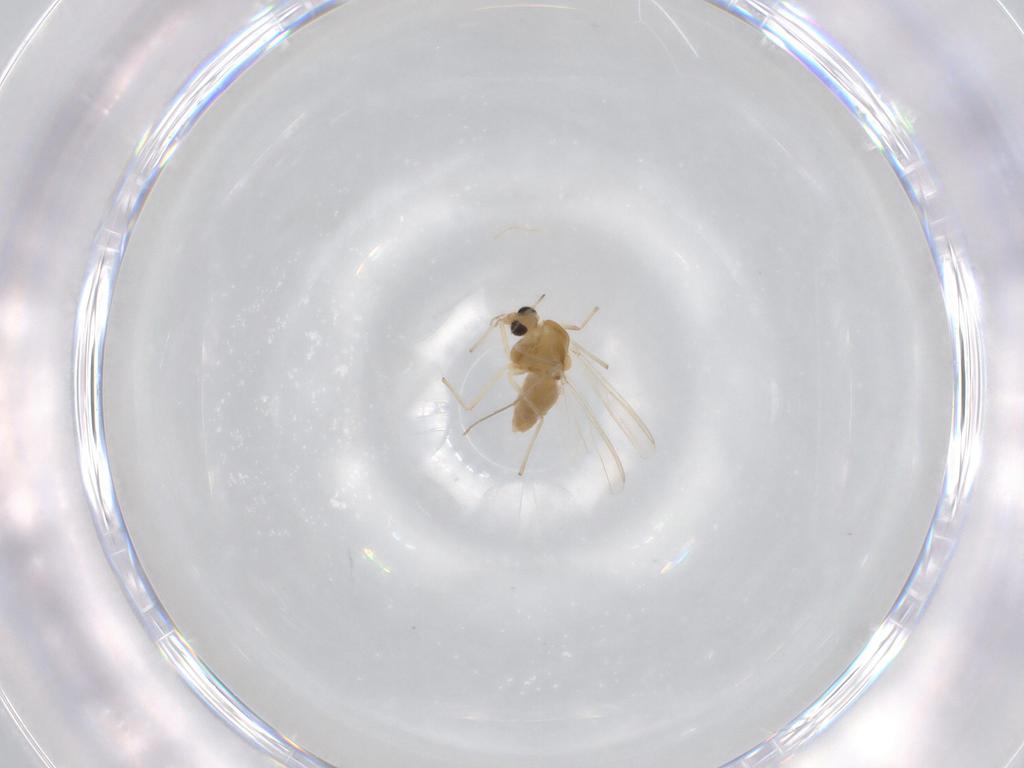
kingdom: Animalia
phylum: Arthropoda
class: Insecta
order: Diptera
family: Chironomidae
